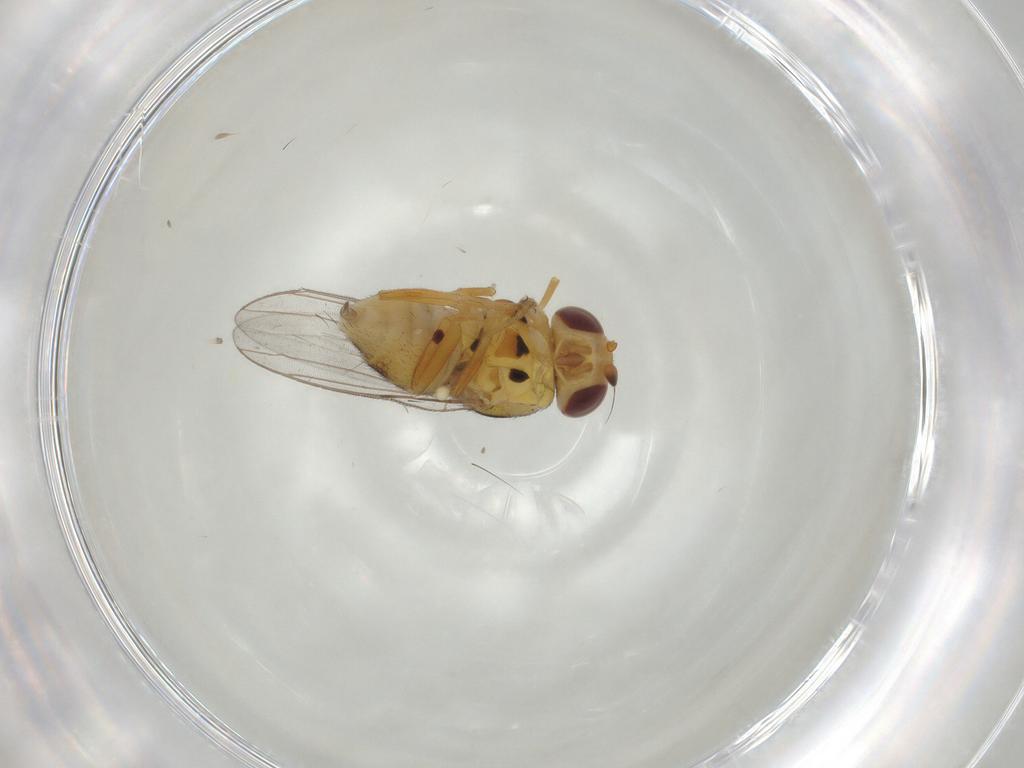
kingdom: Animalia
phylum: Arthropoda
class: Insecta
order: Diptera
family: Chloropidae
